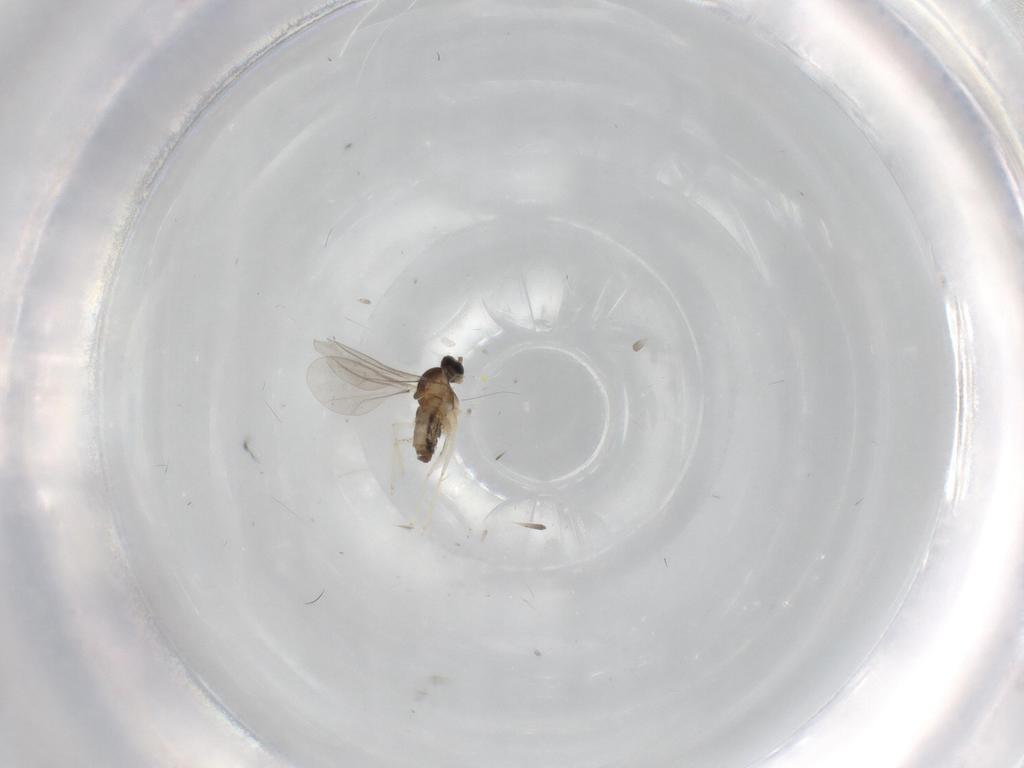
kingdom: Animalia
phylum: Arthropoda
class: Insecta
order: Diptera
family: Cecidomyiidae
